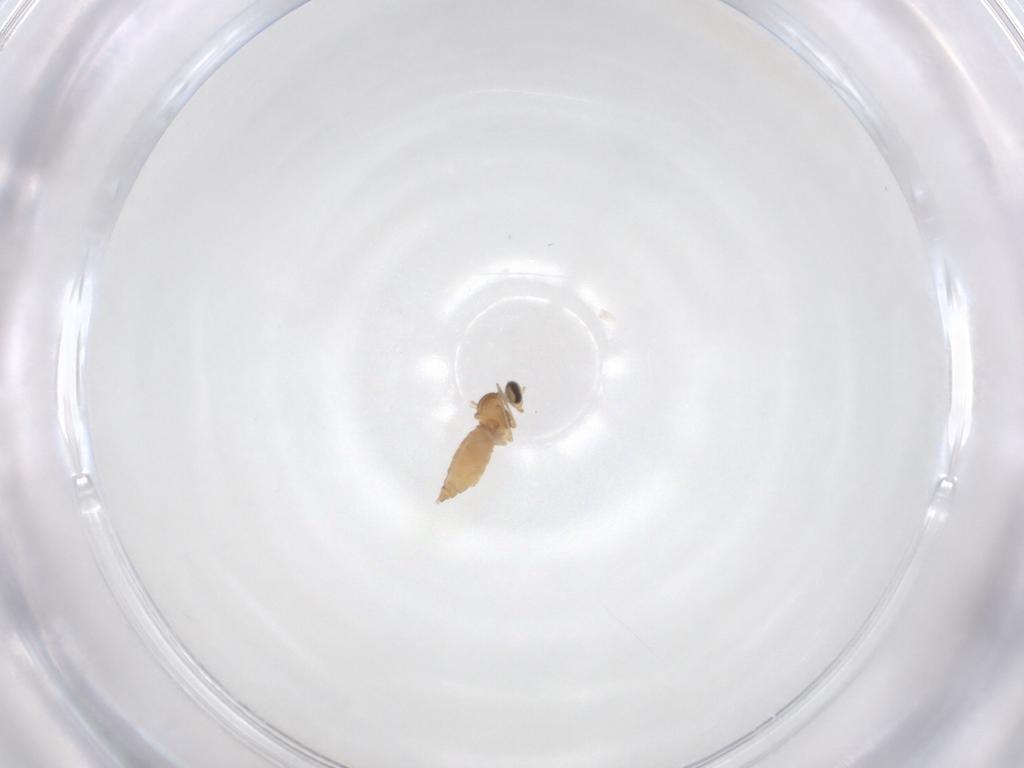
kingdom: Animalia
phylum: Arthropoda
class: Insecta
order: Diptera
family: Cecidomyiidae
